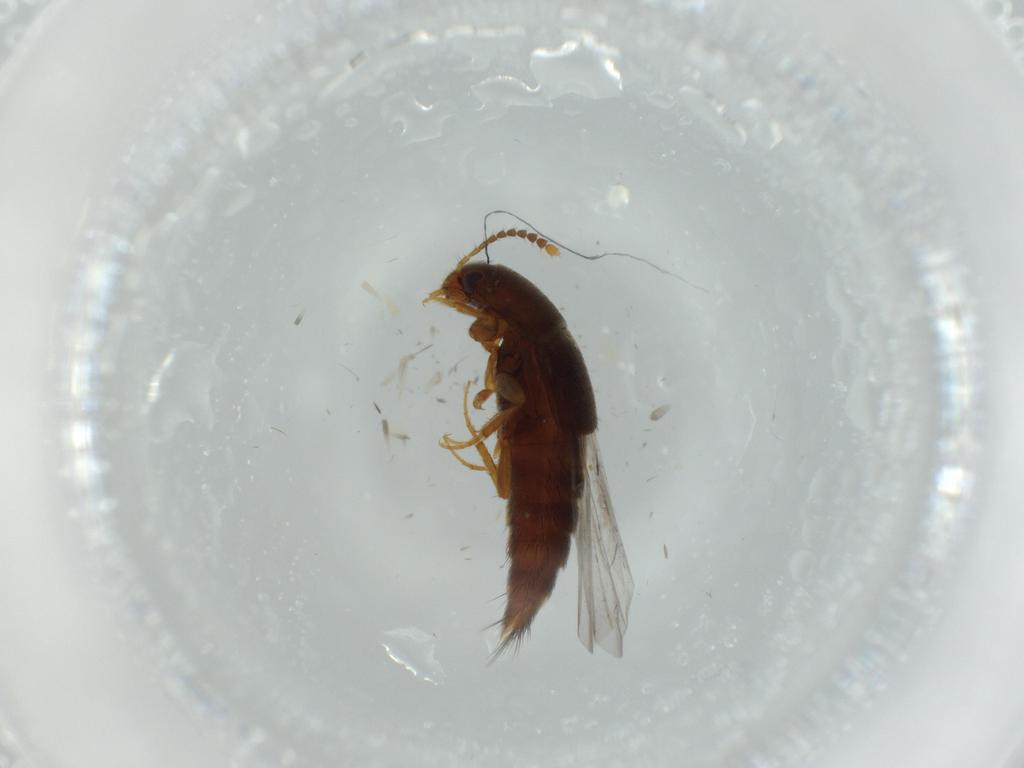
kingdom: Animalia
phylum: Arthropoda
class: Insecta
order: Coleoptera
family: Staphylinidae
